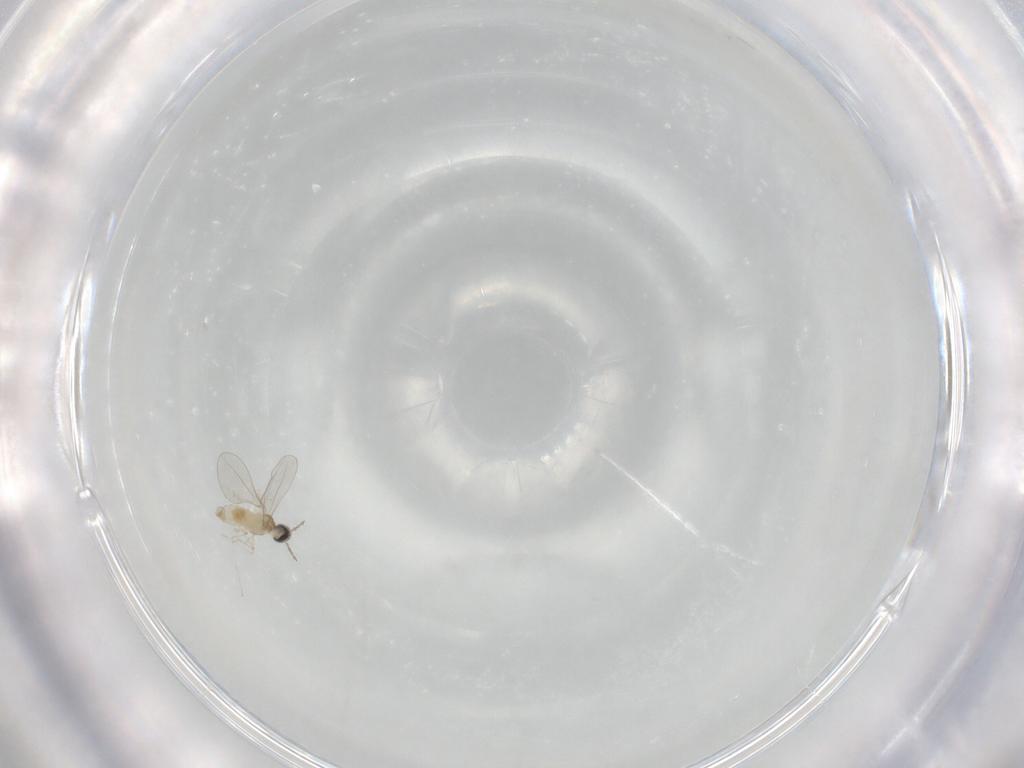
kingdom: Animalia
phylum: Arthropoda
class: Insecta
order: Diptera
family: Cecidomyiidae
